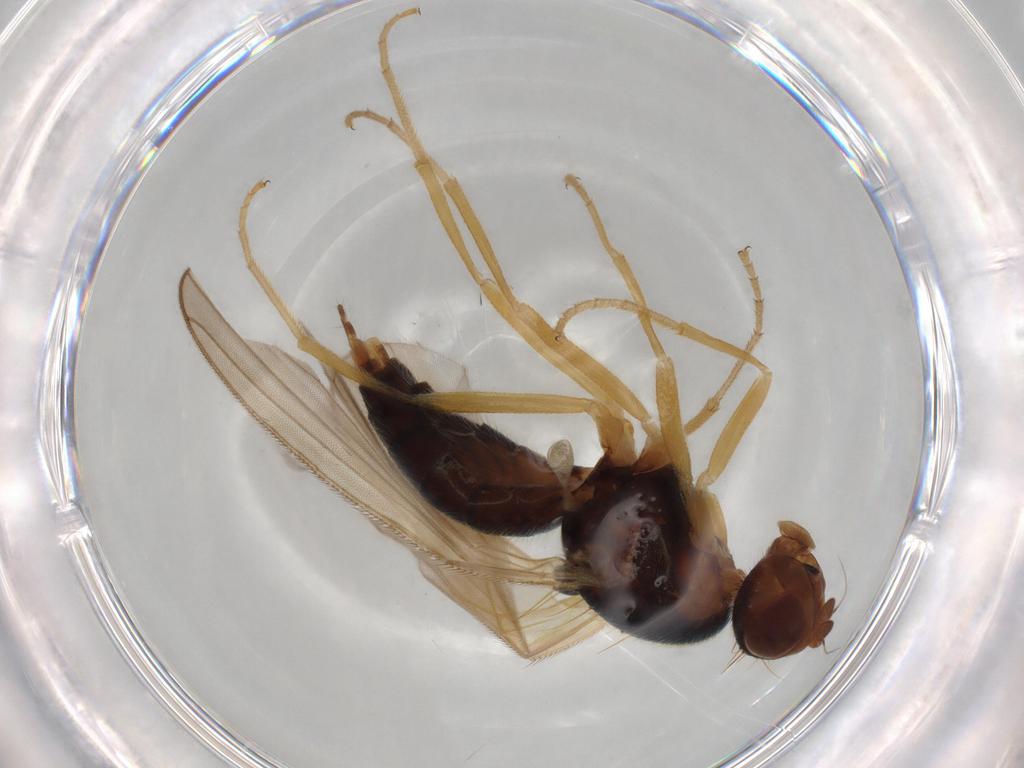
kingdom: Animalia
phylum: Arthropoda
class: Insecta
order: Diptera
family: Psilidae
